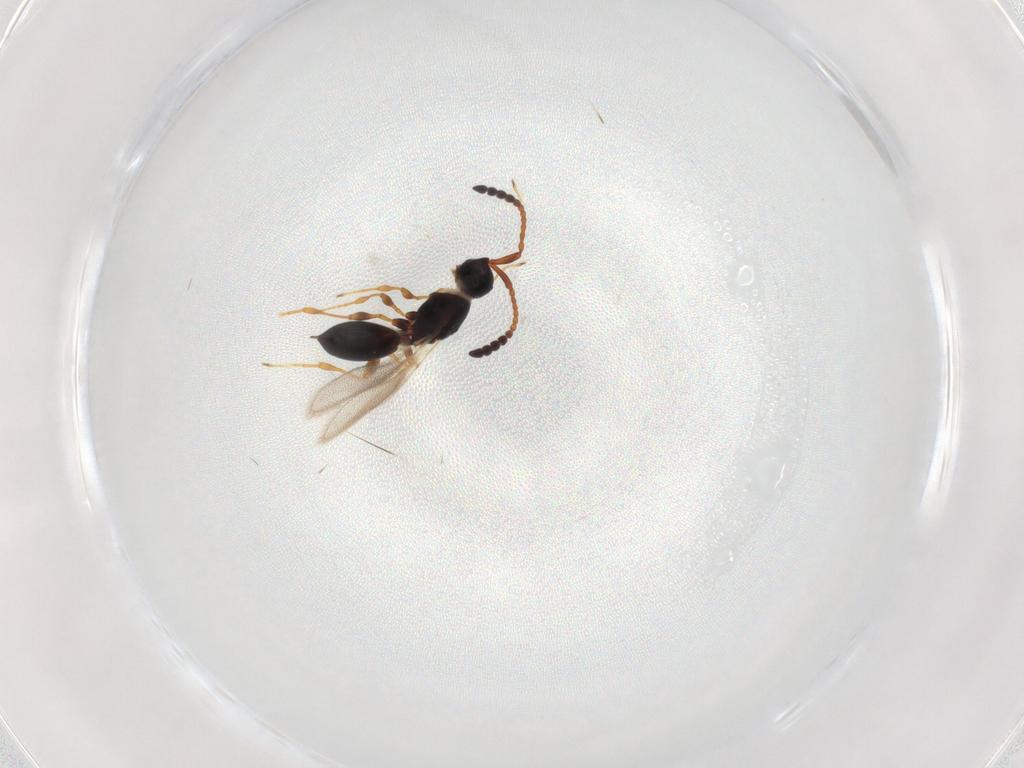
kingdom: Animalia
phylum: Arthropoda
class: Insecta
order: Hymenoptera
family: Diapriidae
